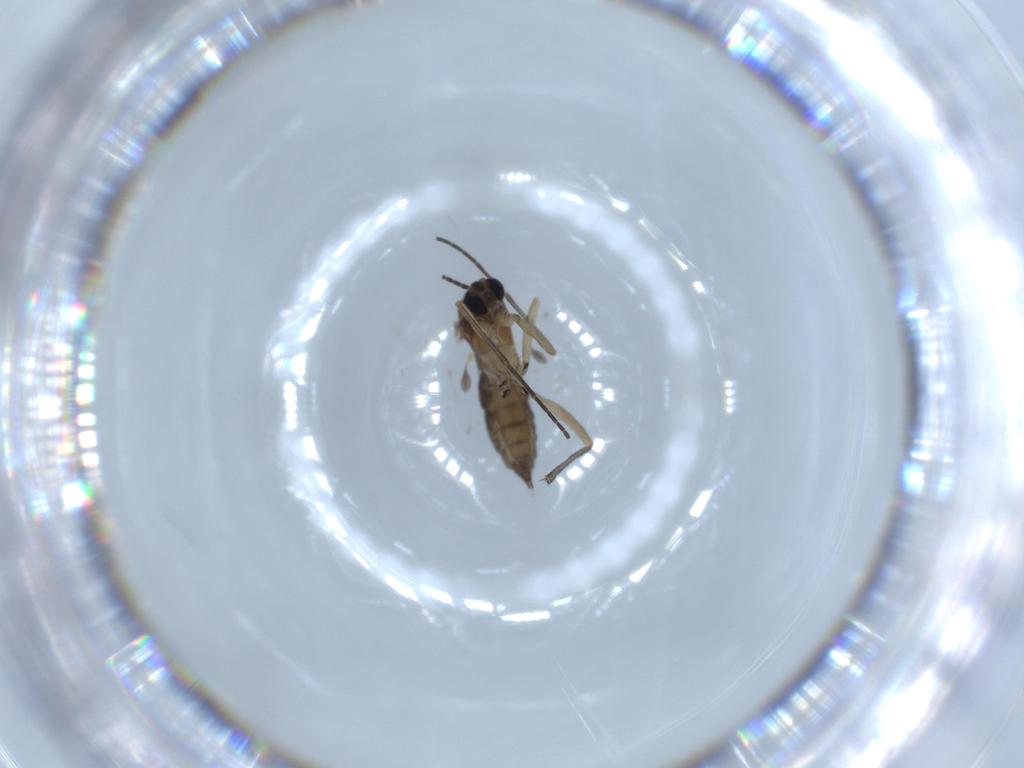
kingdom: Animalia
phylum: Arthropoda
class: Insecta
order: Diptera
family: Sciaridae
